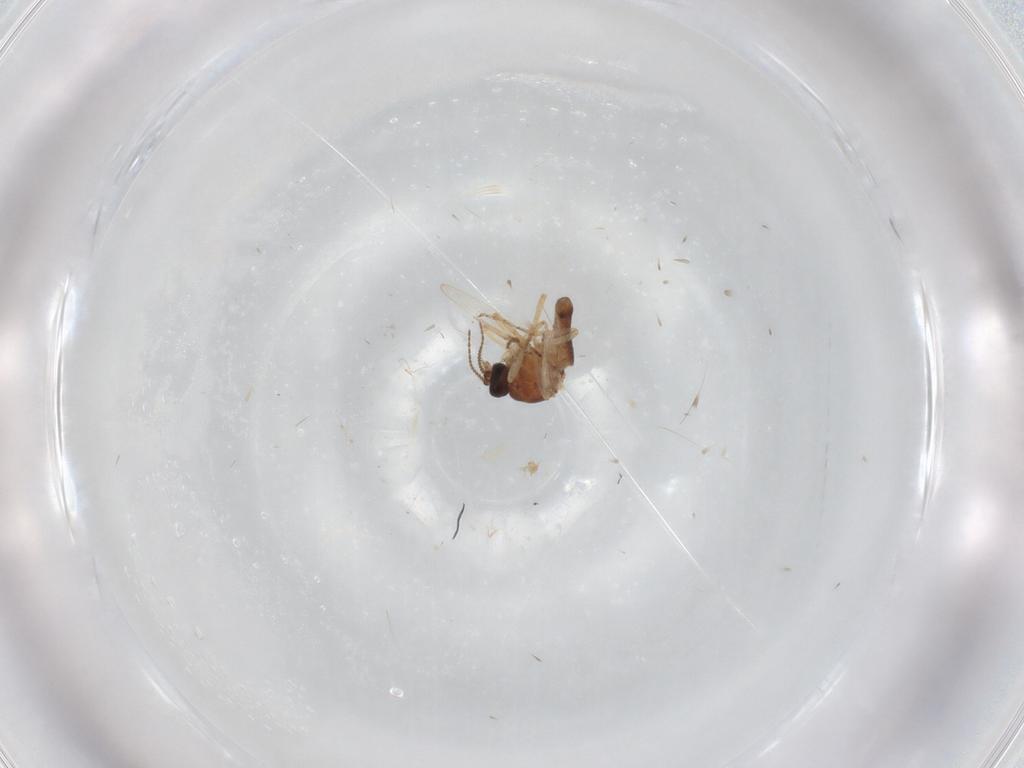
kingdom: Animalia
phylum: Arthropoda
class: Insecta
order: Diptera
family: Cecidomyiidae
